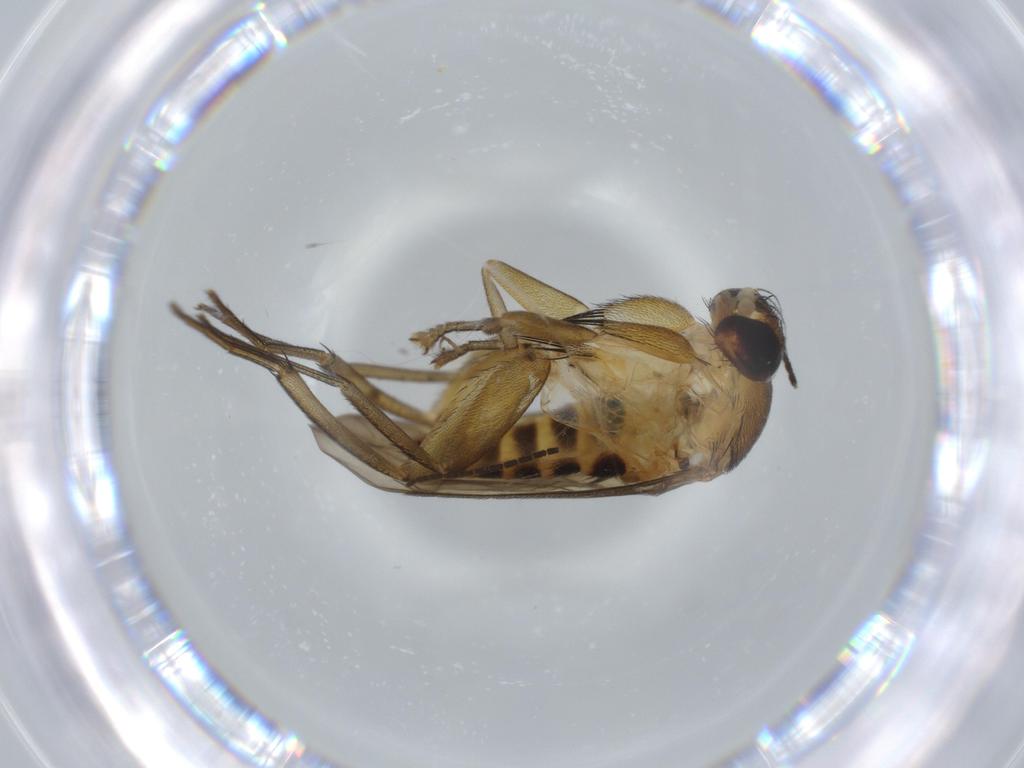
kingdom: Animalia
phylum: Arthropoda
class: Insecta
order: Diptera
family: Sciaridae
